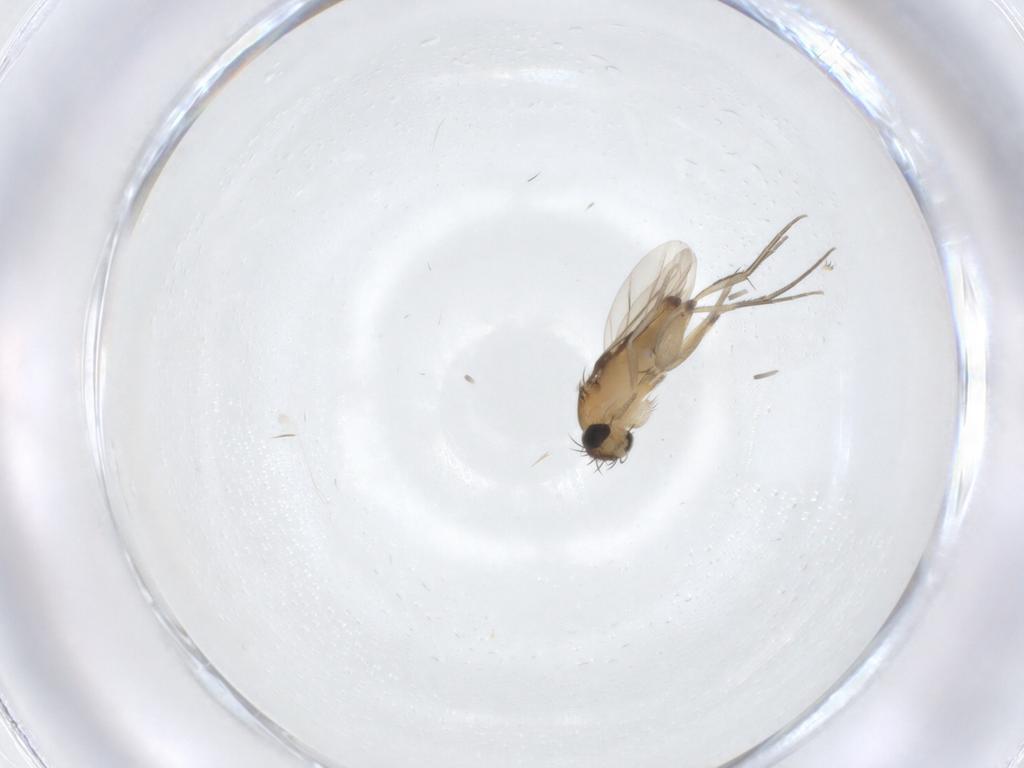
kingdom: Animalia
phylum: Arthropoda
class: Insecta
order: Diptera
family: Phoridae
